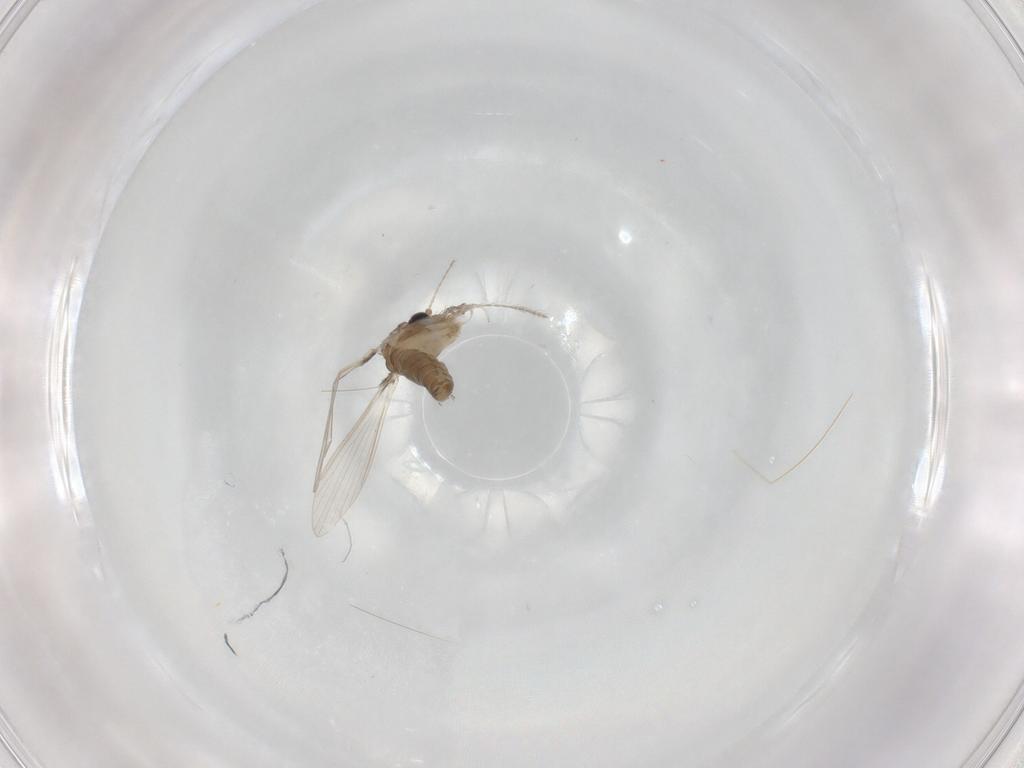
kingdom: Animalia
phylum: Arthropoda
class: Insecta
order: Diptera
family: Psychodidae
